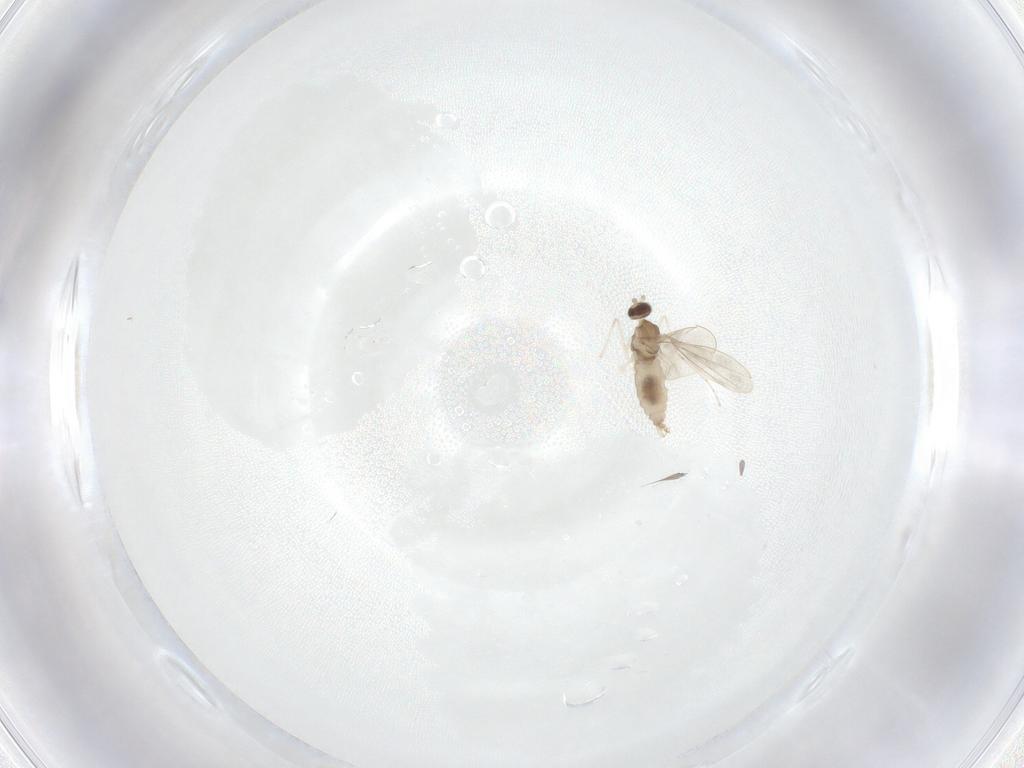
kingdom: Animalia
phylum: Arthropoda
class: Insecta
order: Diptera
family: Cecidomyiidae
